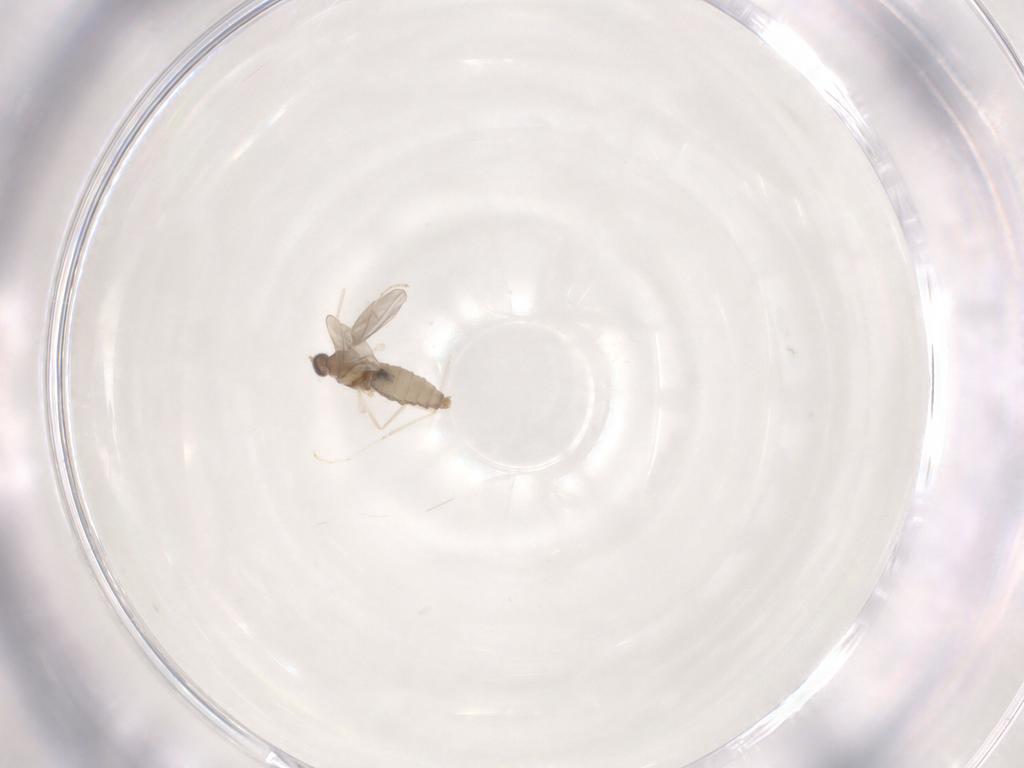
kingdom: Animalia
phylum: Arthropoda
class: Insecta
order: Diptera
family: Cecidomyiidae
